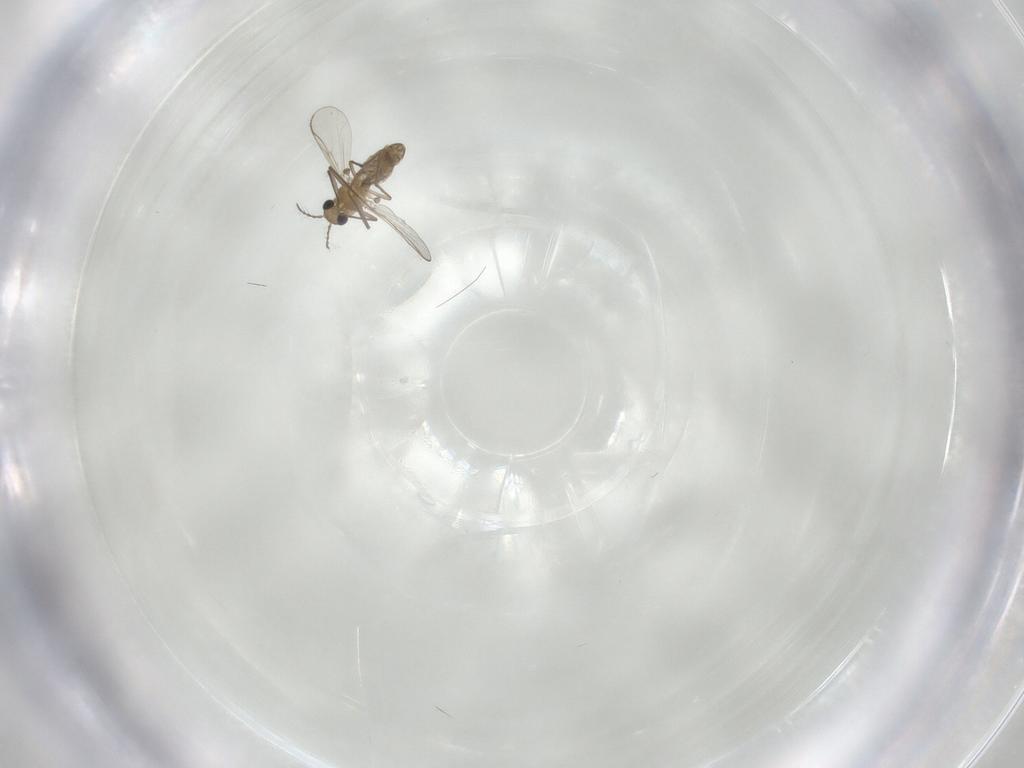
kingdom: Animalia
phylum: Arthropoda
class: Insecta
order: Diptera
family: Chironomidae
